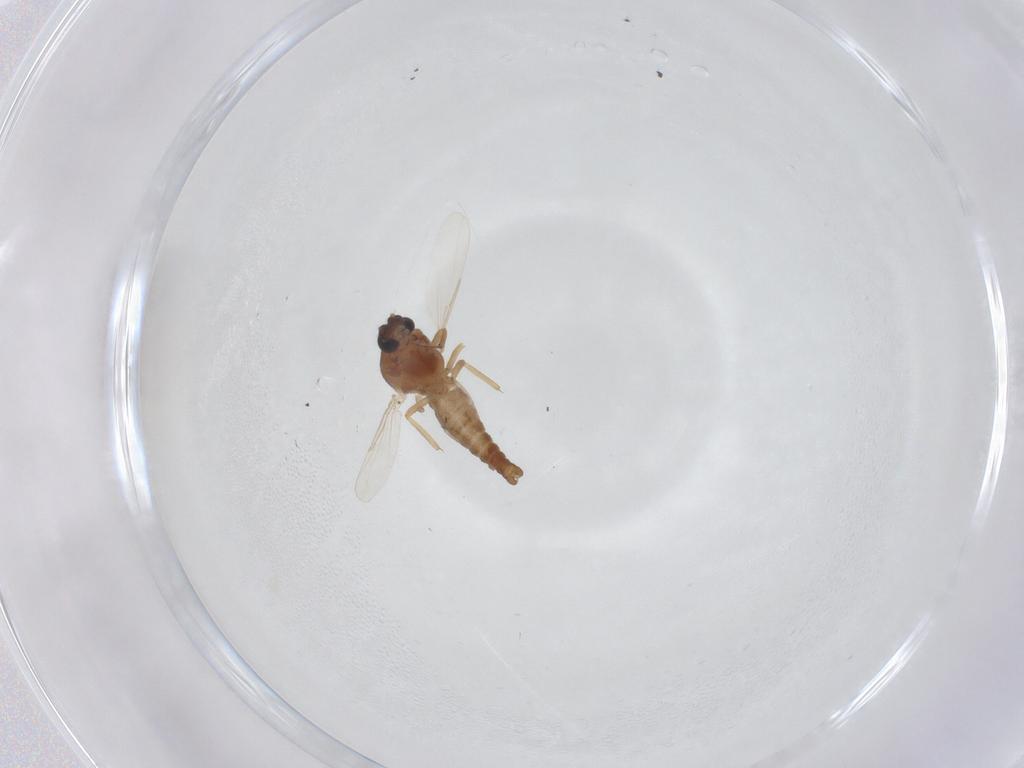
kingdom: Animalia
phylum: Arthropoda
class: Insecta
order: Diptera
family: Ceratopogonidae
